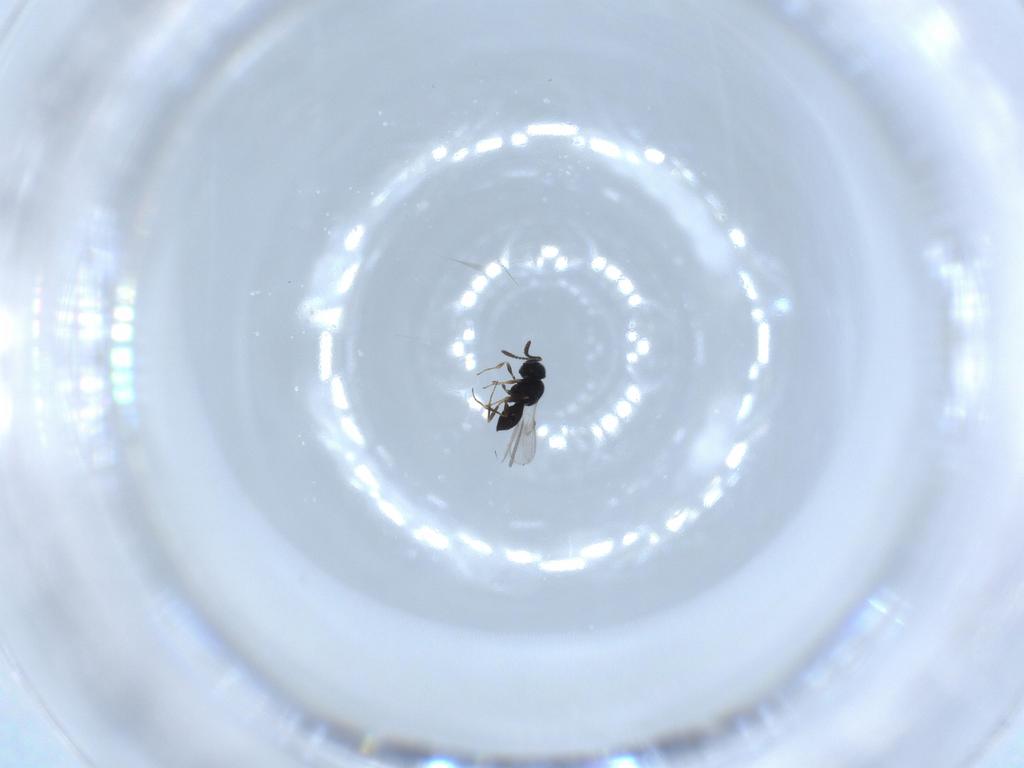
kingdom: Animalia
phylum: Arthropoda
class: Insecta
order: Hymenoptera
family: Scelionidae
